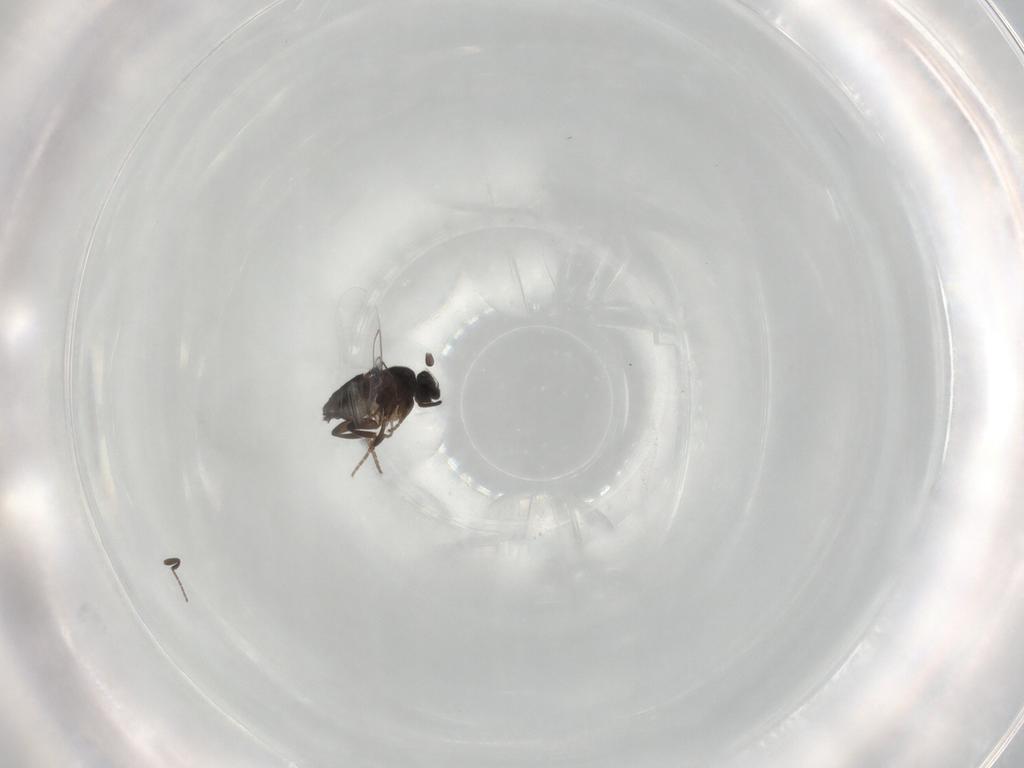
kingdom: Animalia
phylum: Arthropoda
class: Insecta
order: Diptera
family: Phoridae
